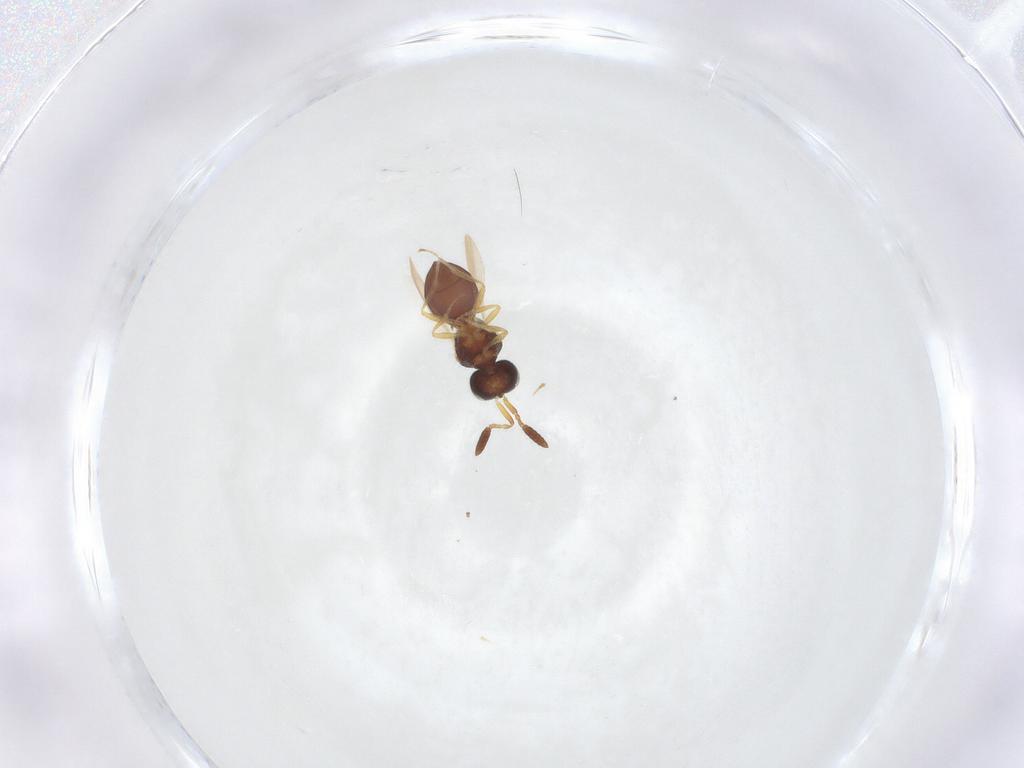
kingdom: Animalia
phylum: Arthropoda
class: Insecta
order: Hymenoptera
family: Scelionidae
